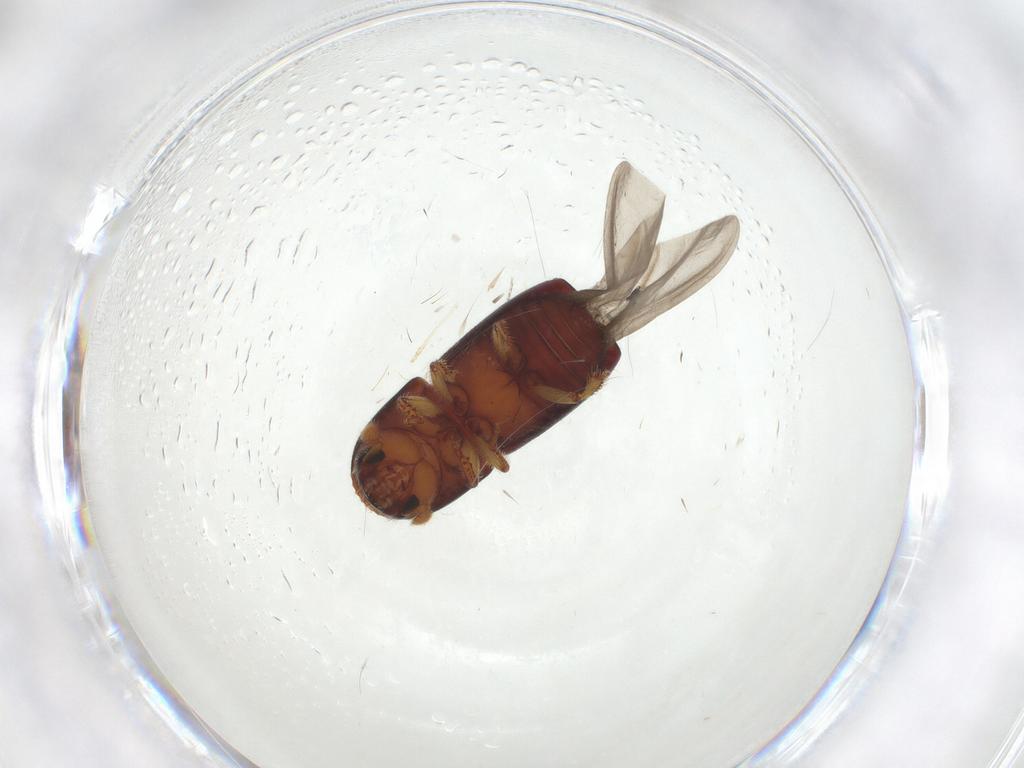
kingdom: Animalia
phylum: Arthropoda
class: Insecta
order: Coleoptera
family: Curculionidae
